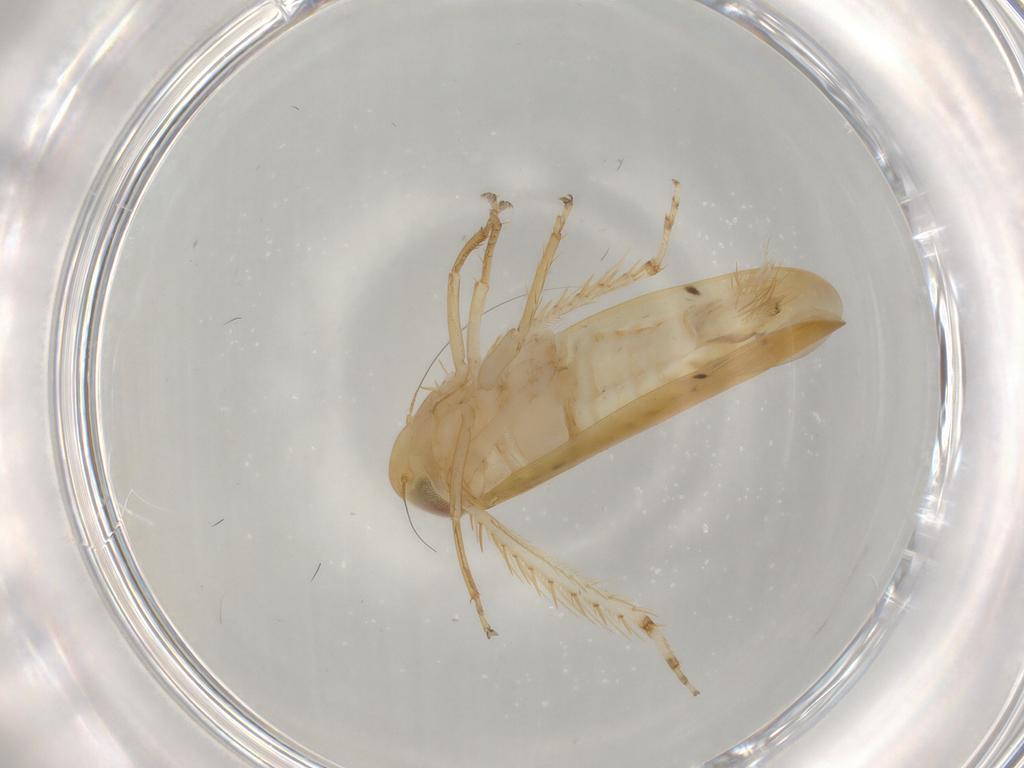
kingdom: Animalia
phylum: Arthropoda
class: Insecta
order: Hemiptera
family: Cicadellidae
